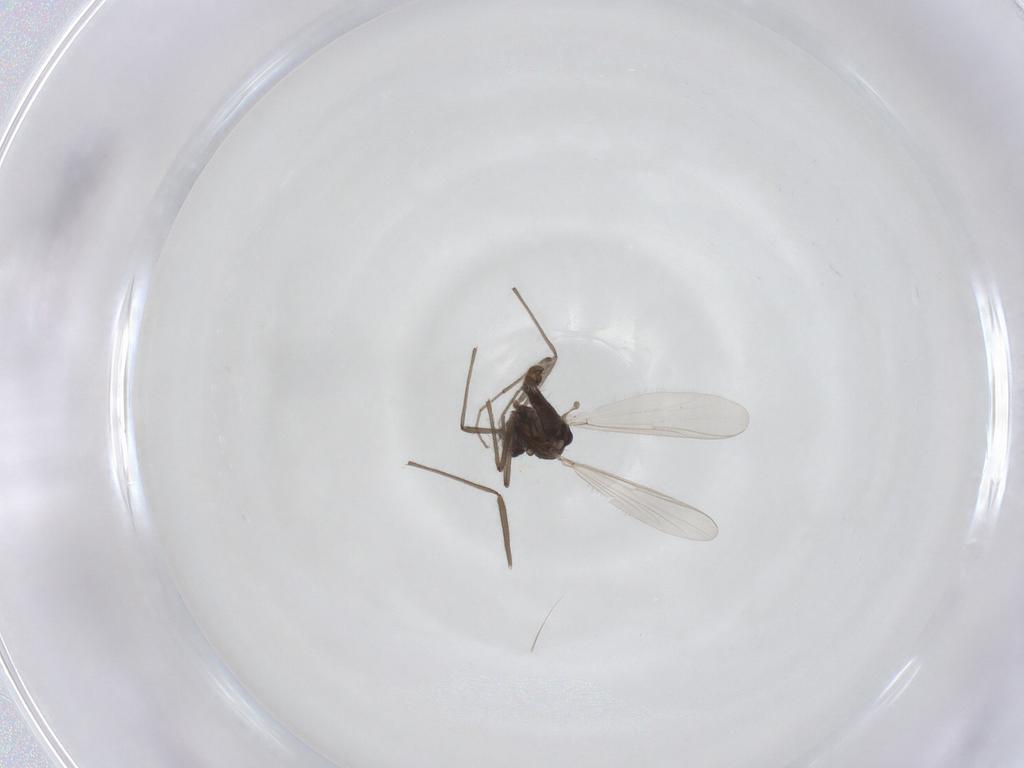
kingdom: Animalia
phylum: Arthropoda
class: Insecta
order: Diptera
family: Chironomidae
